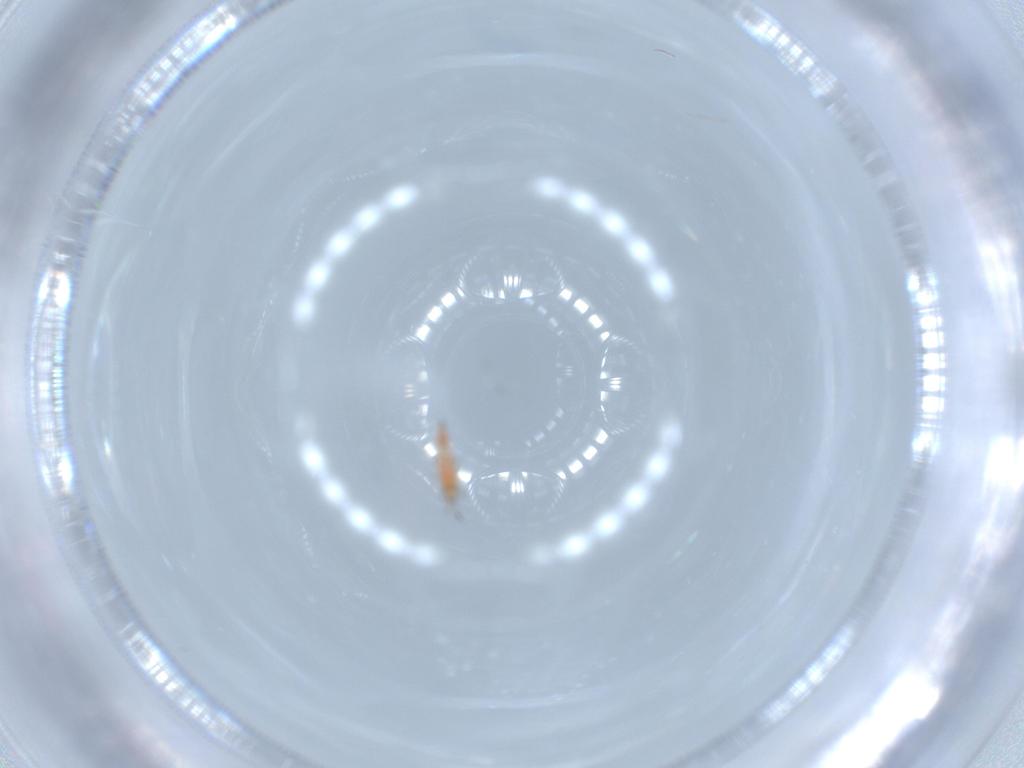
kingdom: Animalia
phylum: Arthropoda
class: Insecta
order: Thysanoptera
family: Phlaeothripidae
